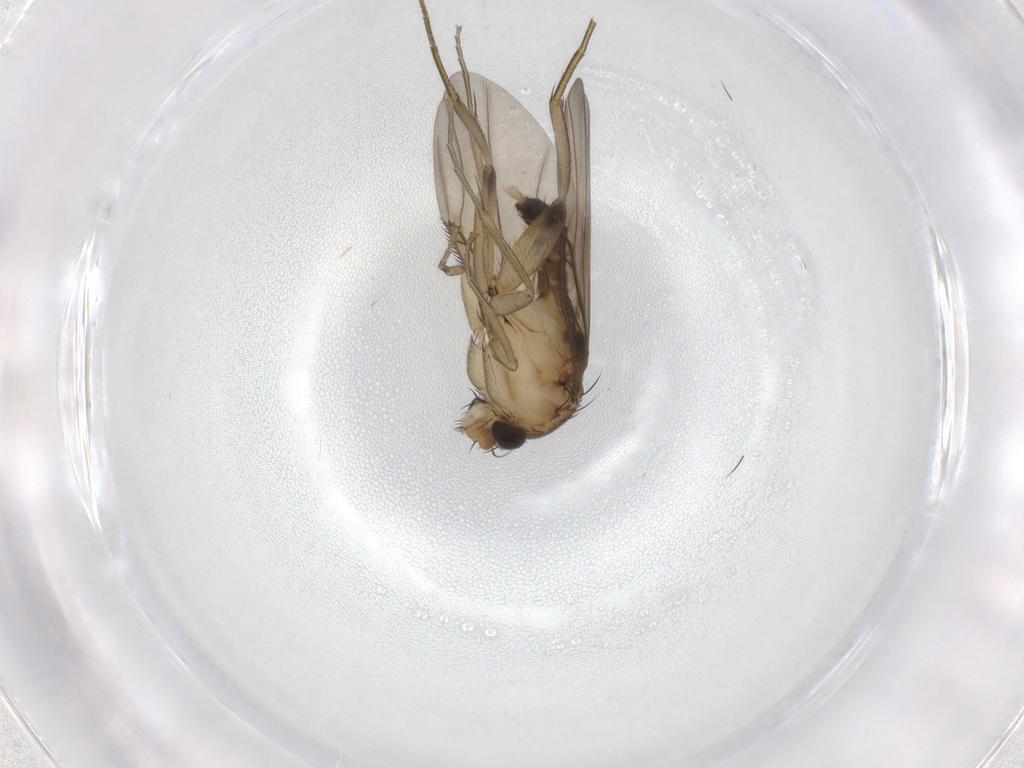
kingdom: Animalia
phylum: Arthropoda
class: Insecta
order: Diptera
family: Phoridae
